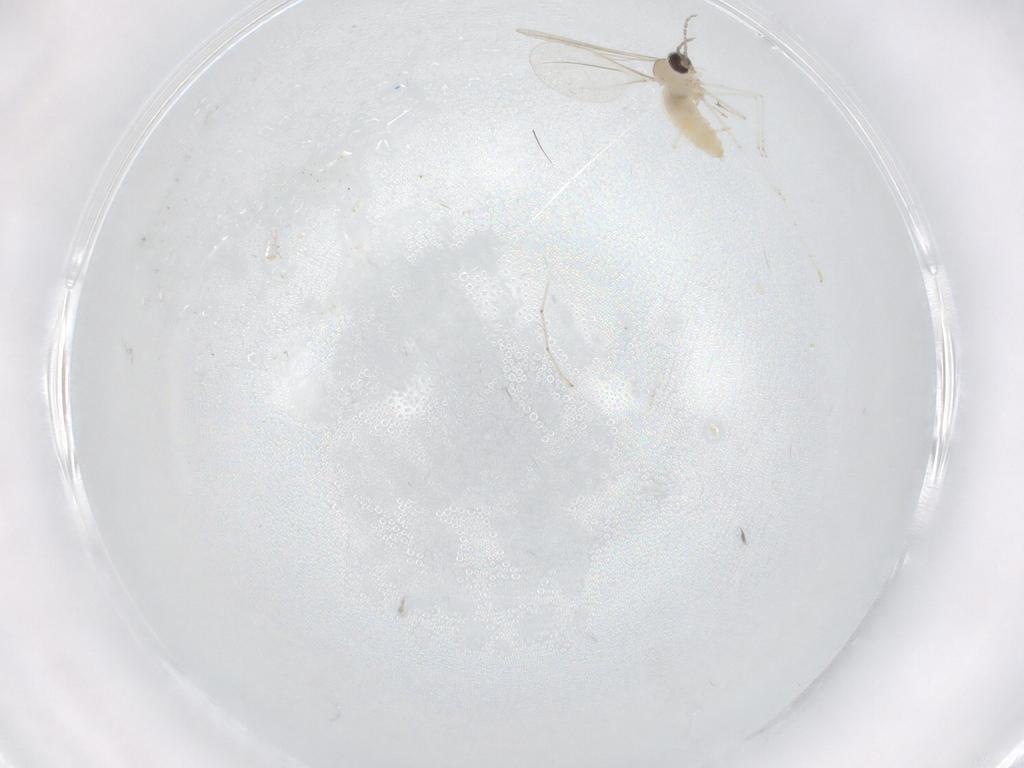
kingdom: Animalia
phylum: Arthropoda
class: Insecta
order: Diptera
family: Cecidomyiidae
